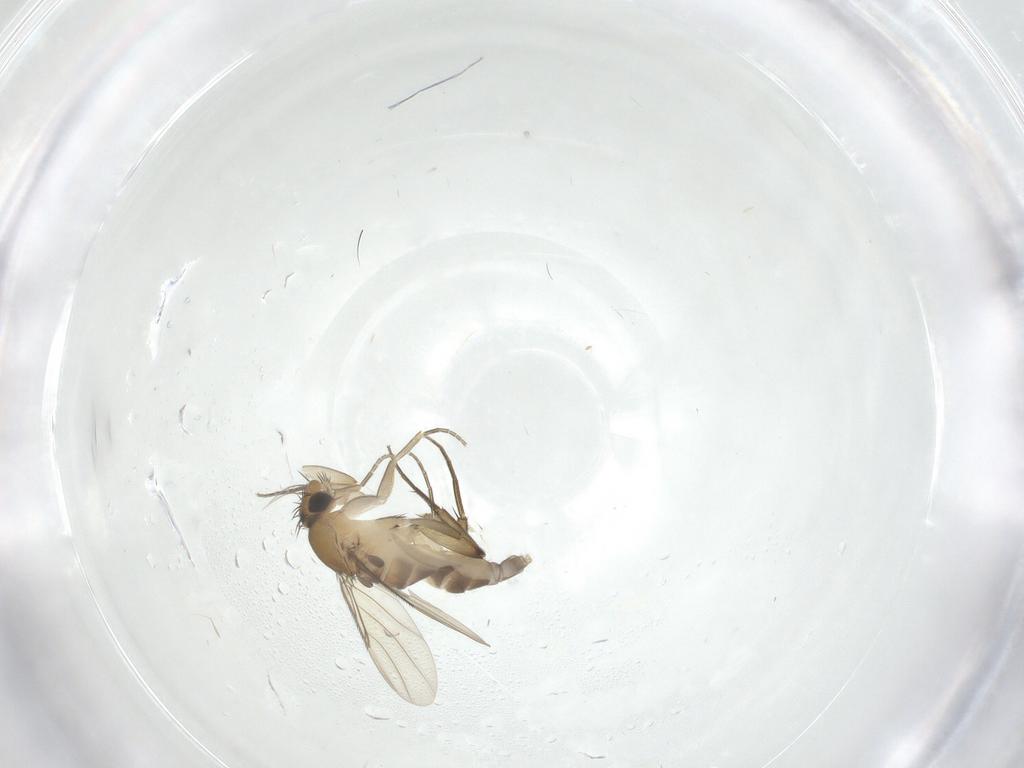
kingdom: Animalia
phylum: Arthropoda
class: Insecta
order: Diptera
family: Phoridae
